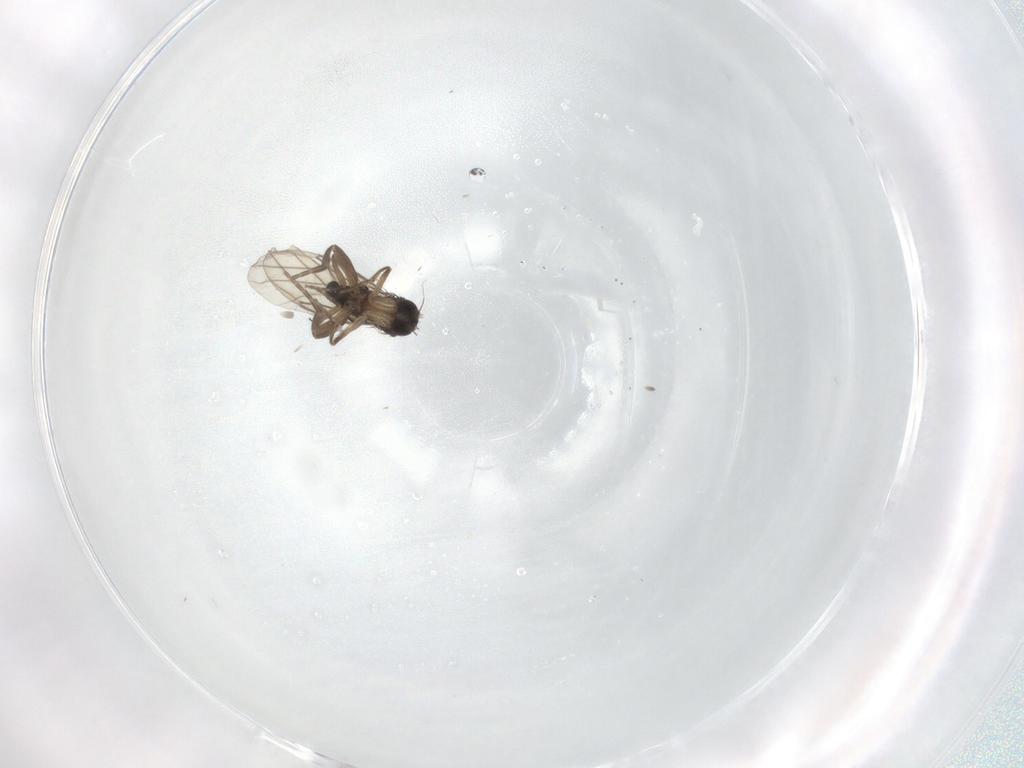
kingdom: Animalia
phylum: Arthropoda
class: Insecta
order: Diptera
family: Phoridae
